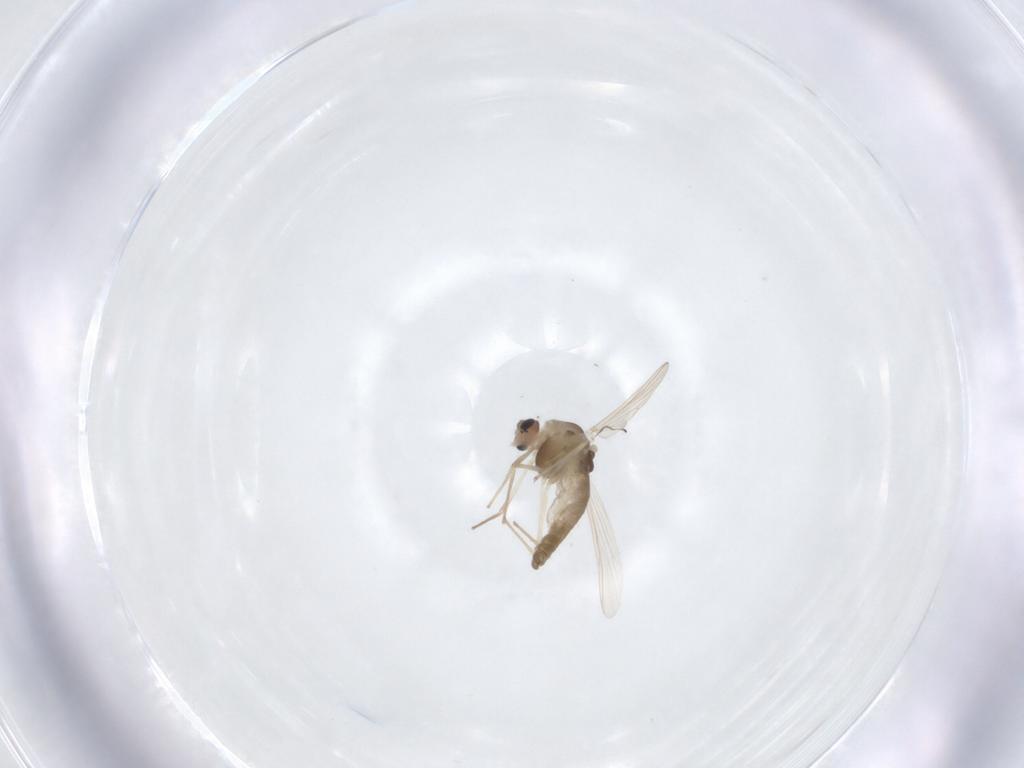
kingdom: Animalia
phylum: Arthropoda
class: Insecta
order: Diptera
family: Chironomidae
